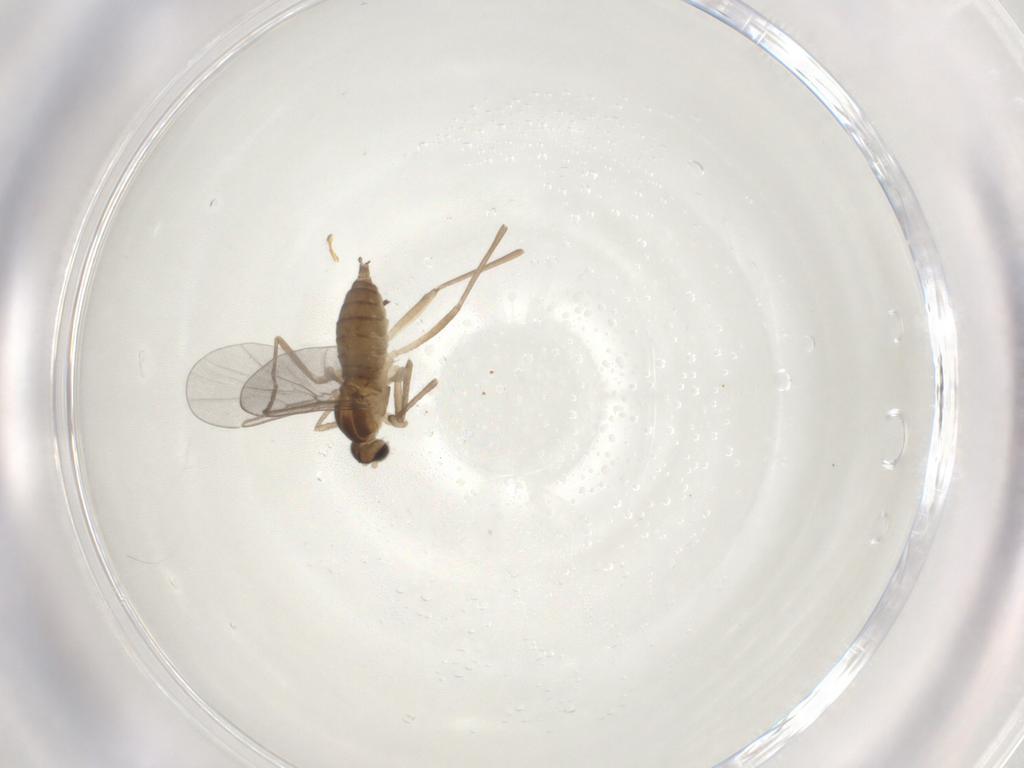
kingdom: Animalia
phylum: Arthropoda
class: Insecta
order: Diptera
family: Cecidomyiidae
